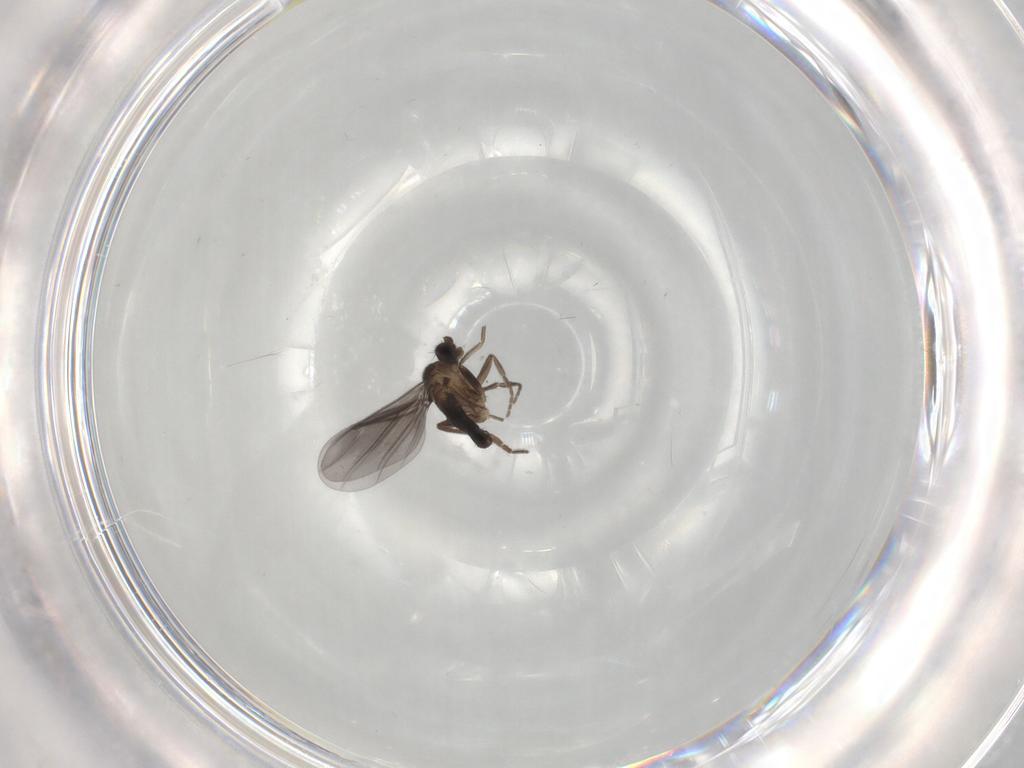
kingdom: Animalia
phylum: Arthropoda
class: Insecta
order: Diptera
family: Phoridae
